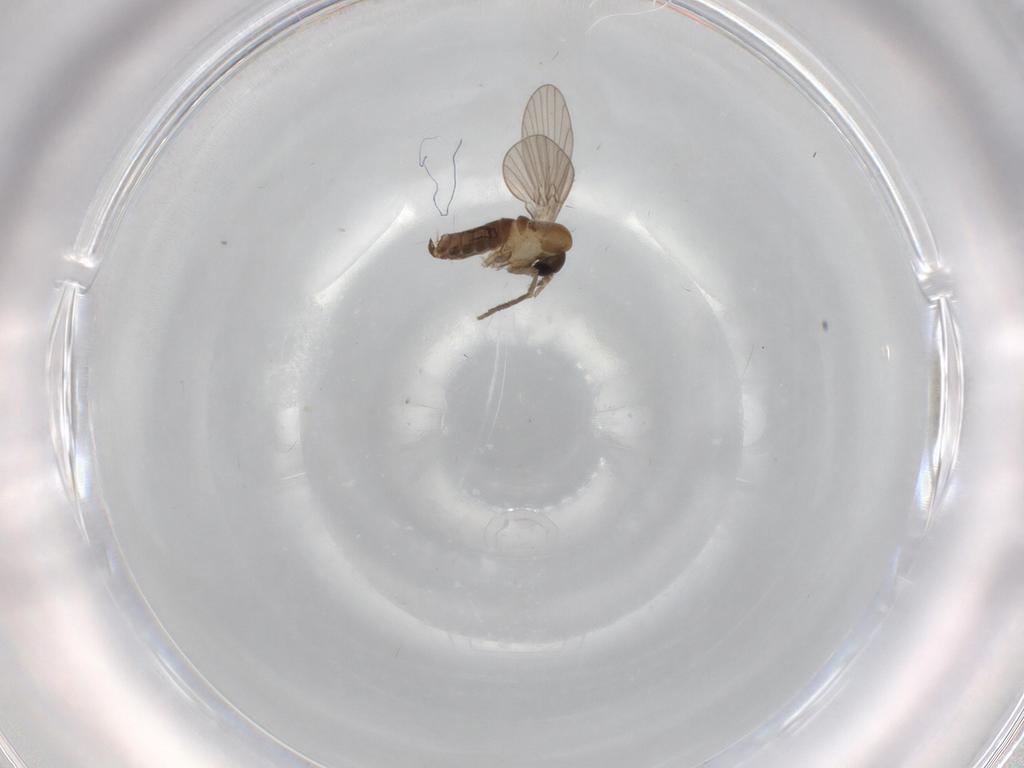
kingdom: Animalia
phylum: Arthropoda
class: Insecta
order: Diptera
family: Psychodidae
